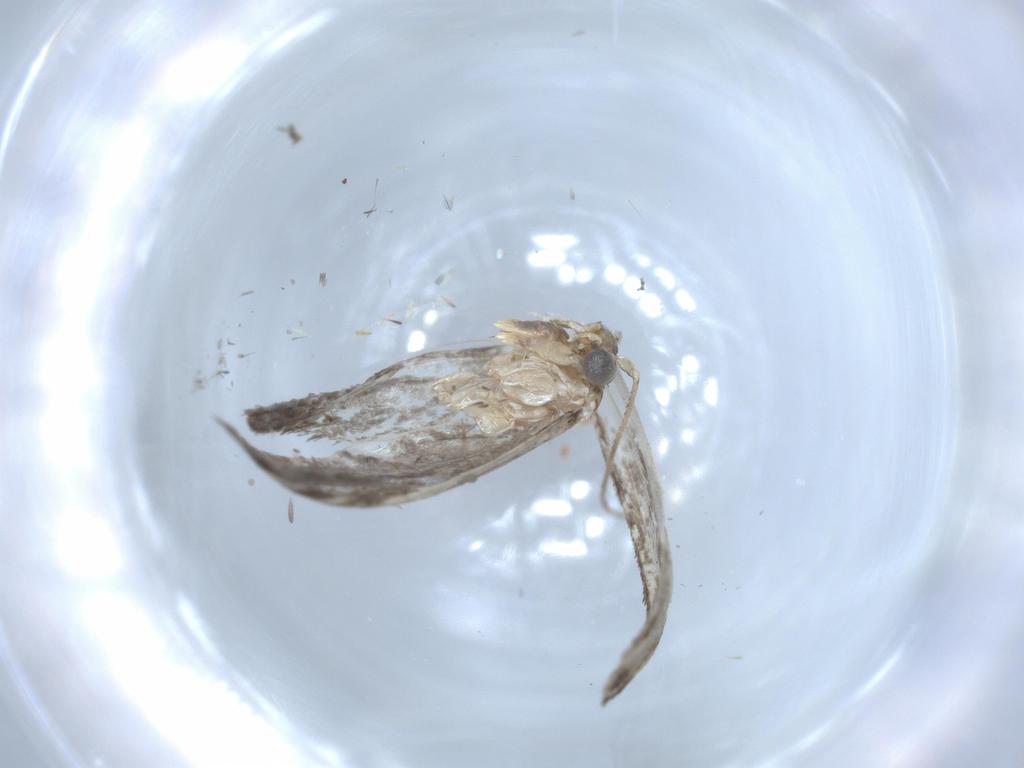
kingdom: Animalia
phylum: Arthropoda
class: Insecta
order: Lepidoptera
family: Tineidae
